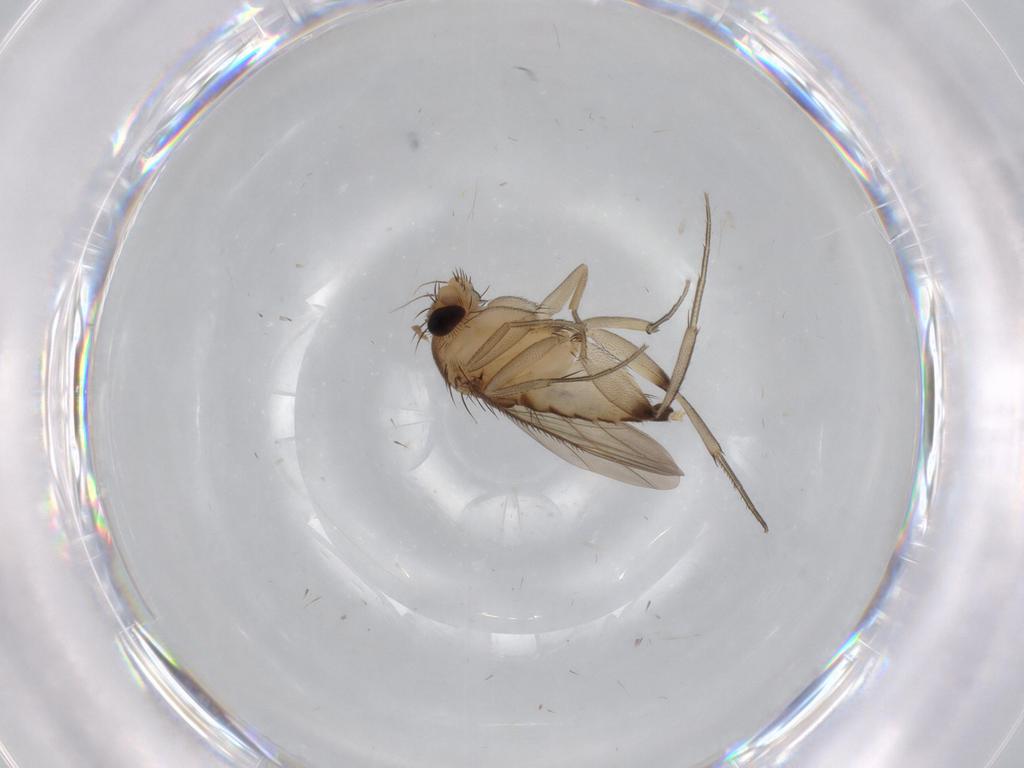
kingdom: Animalia
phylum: Arthropoda
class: Insecta
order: Diptera
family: Phoridae
